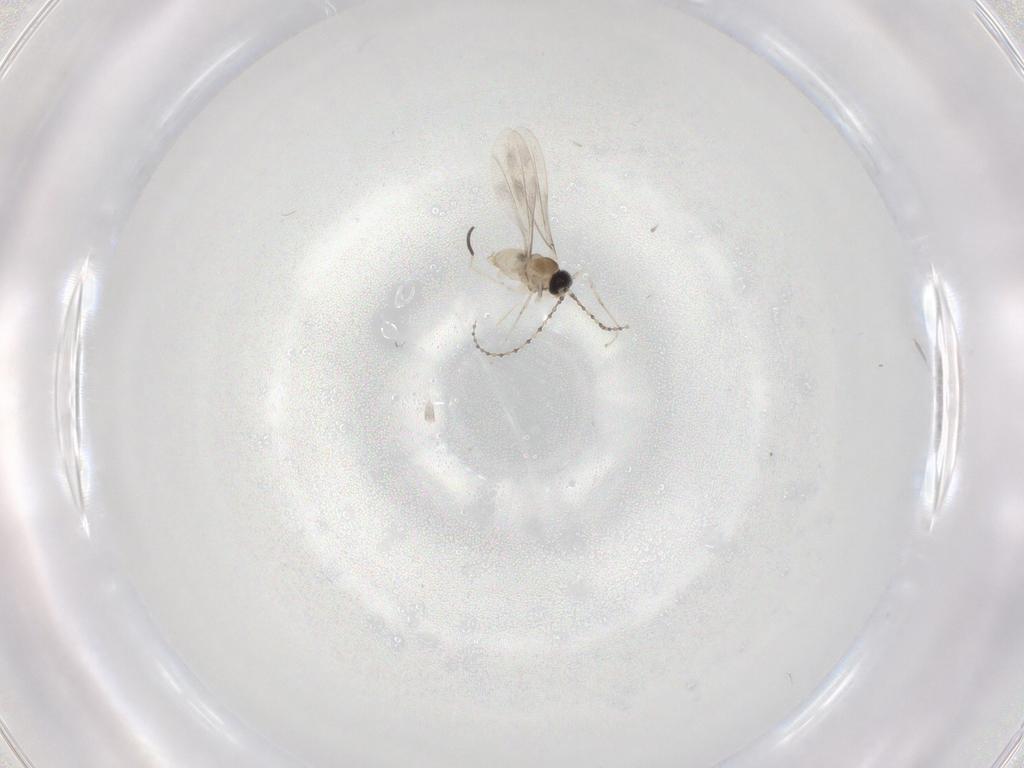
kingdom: Animalia
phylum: Arthropoda
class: Insecta
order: Diptera
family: Cecidomyiidae
